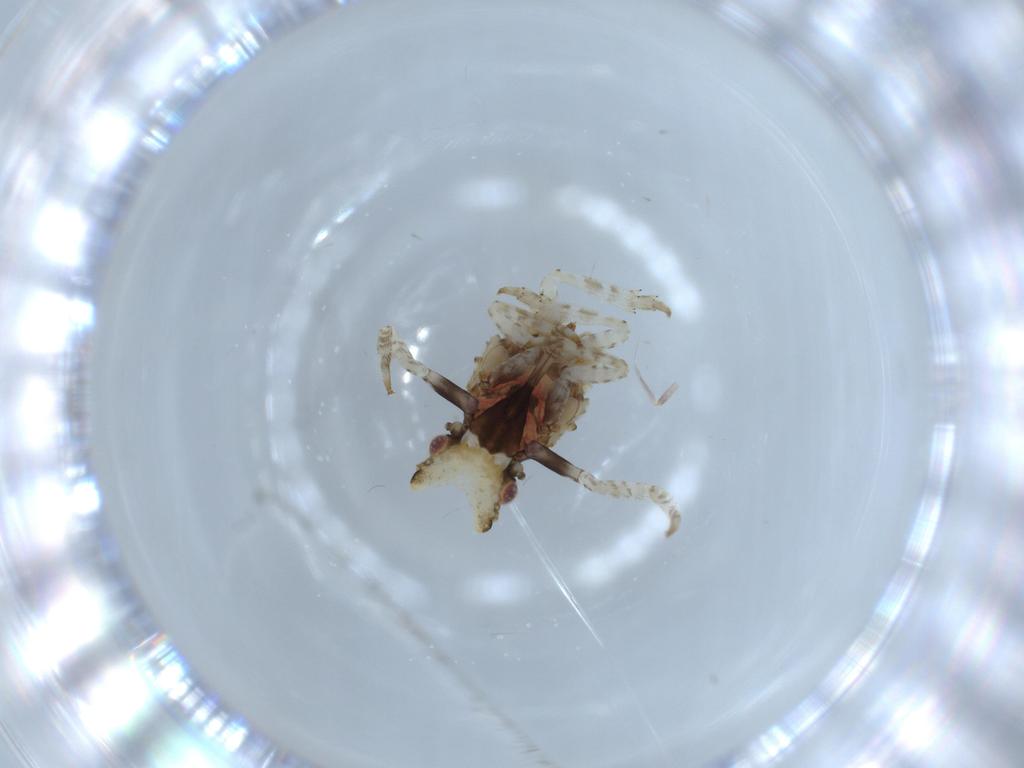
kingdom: Animalia
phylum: Arthropoda
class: Insecta
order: Hemiptera
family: Fulgoridae
